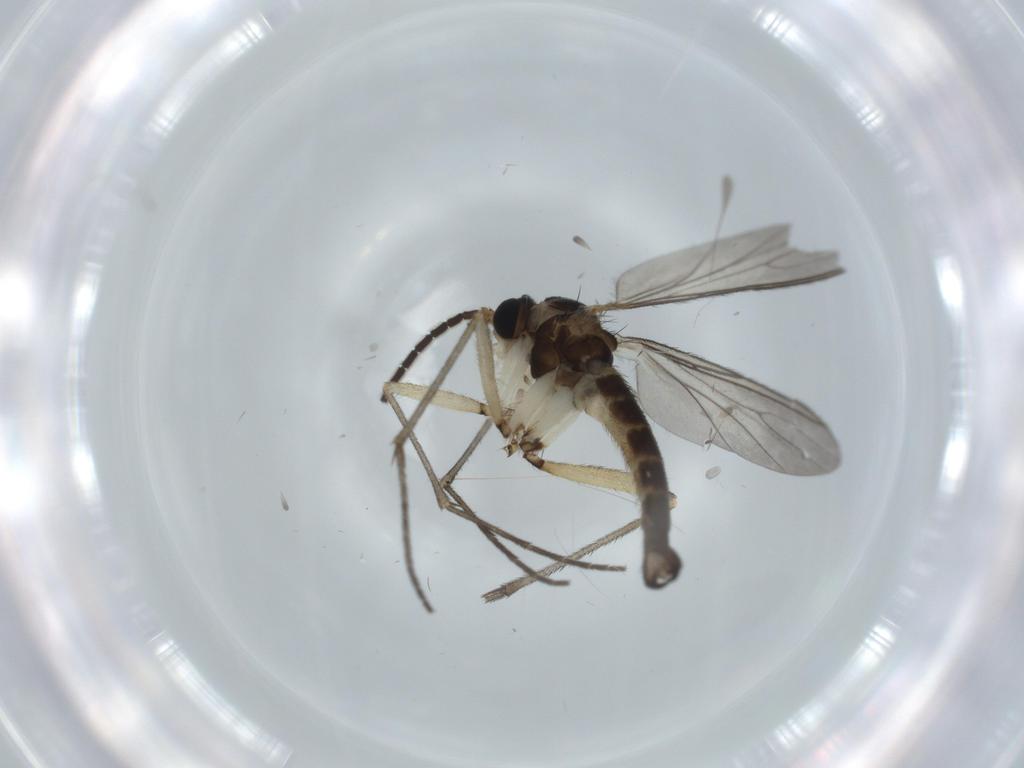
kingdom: Animalia
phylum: Arthropoda
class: Insecta
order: Diptera
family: Sciaridae
